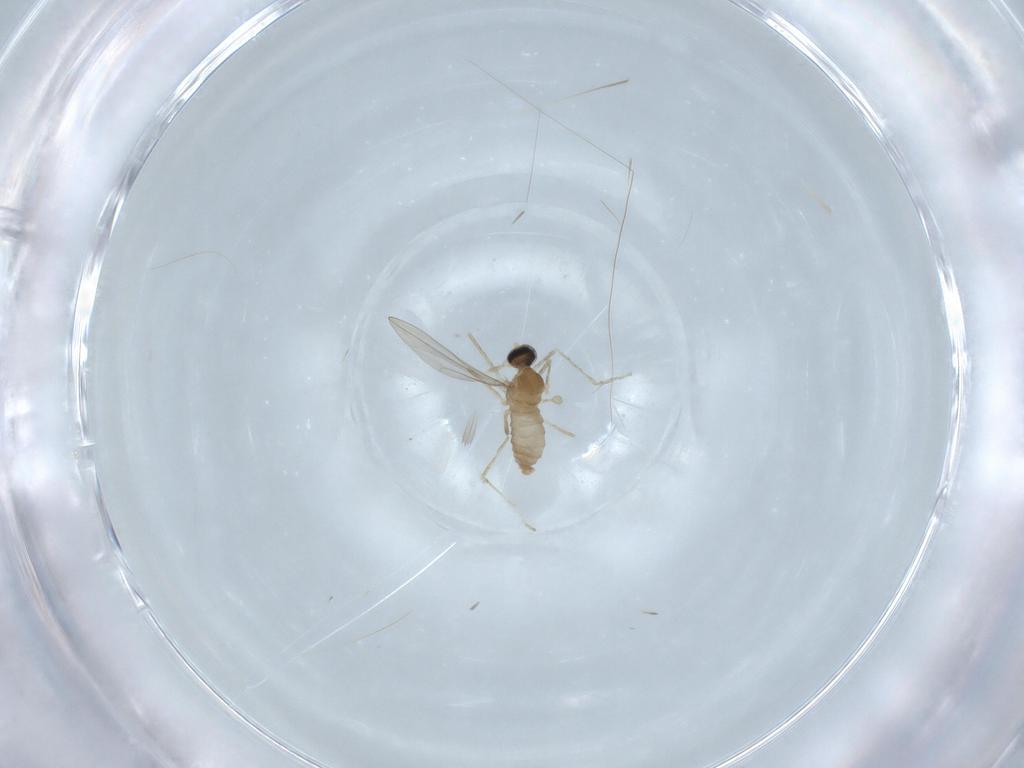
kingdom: Animalia
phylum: Arthropoda
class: Insecta
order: Diptera
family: Cecidomyiidae
